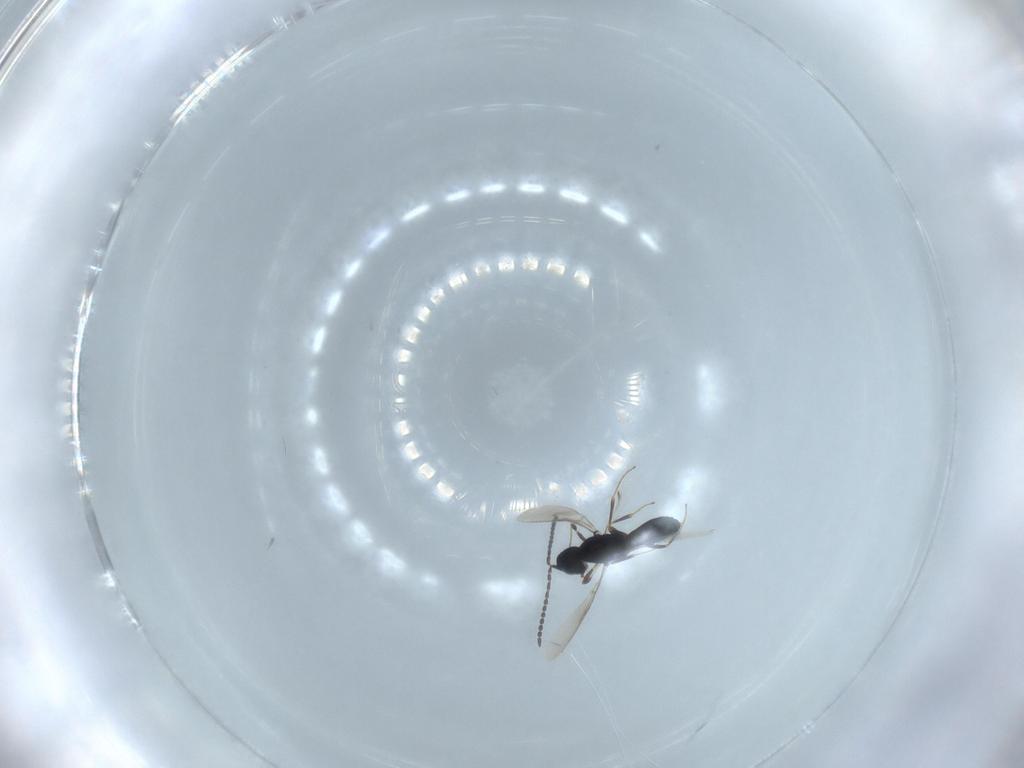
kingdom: Animalia
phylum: Arthropoda
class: Insecta
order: Hymenoptera
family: Scelionidae
